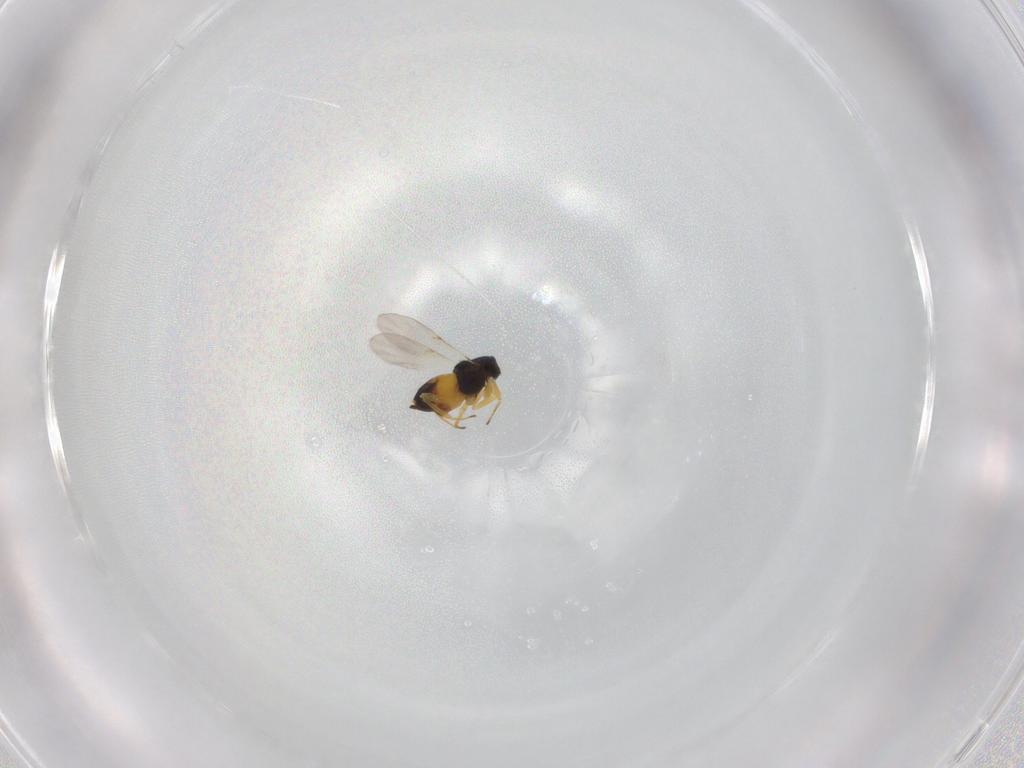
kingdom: Animalia
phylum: Arthropoda
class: Insecta
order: Hymenoptera
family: Encyrtidae
